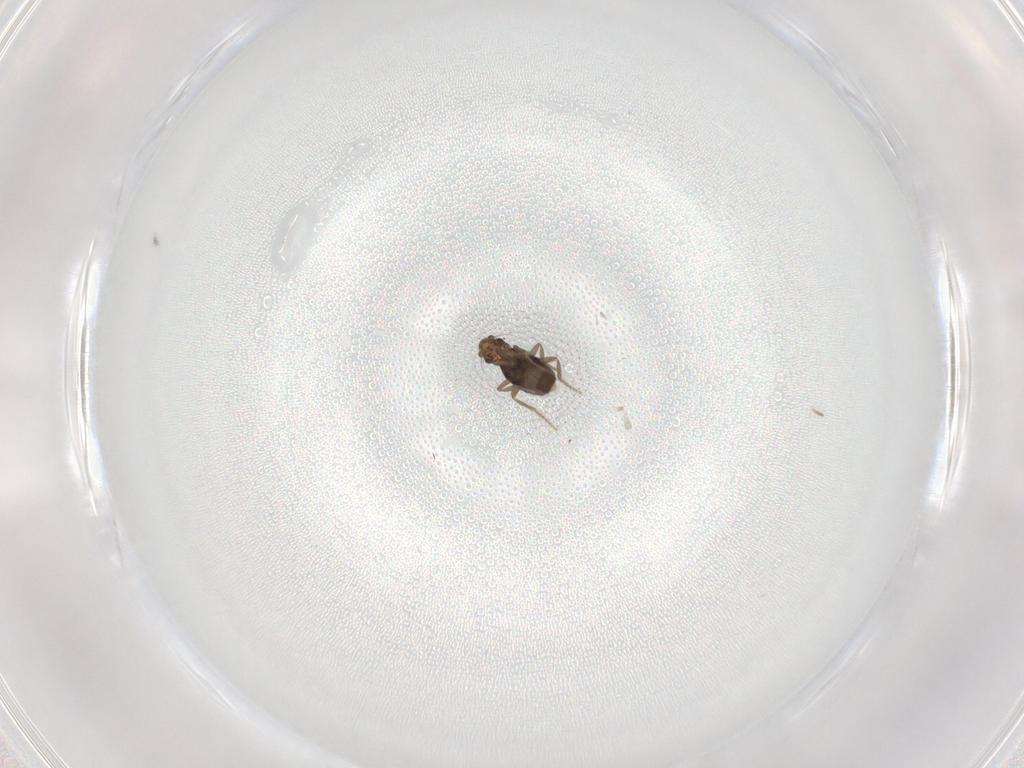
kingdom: Animalia
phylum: Arthropoda
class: Insecta
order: Diptera
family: Phoridae
